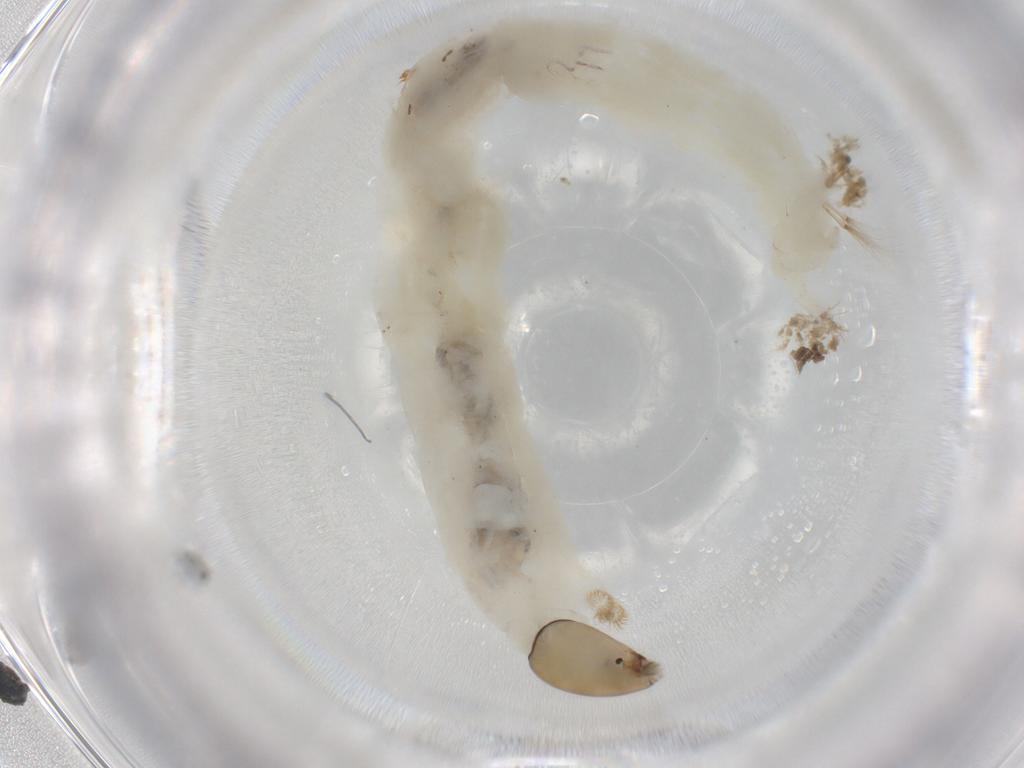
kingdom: Animalia
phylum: Arthropoda
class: Insecta
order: Diptera
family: Chironomidae
